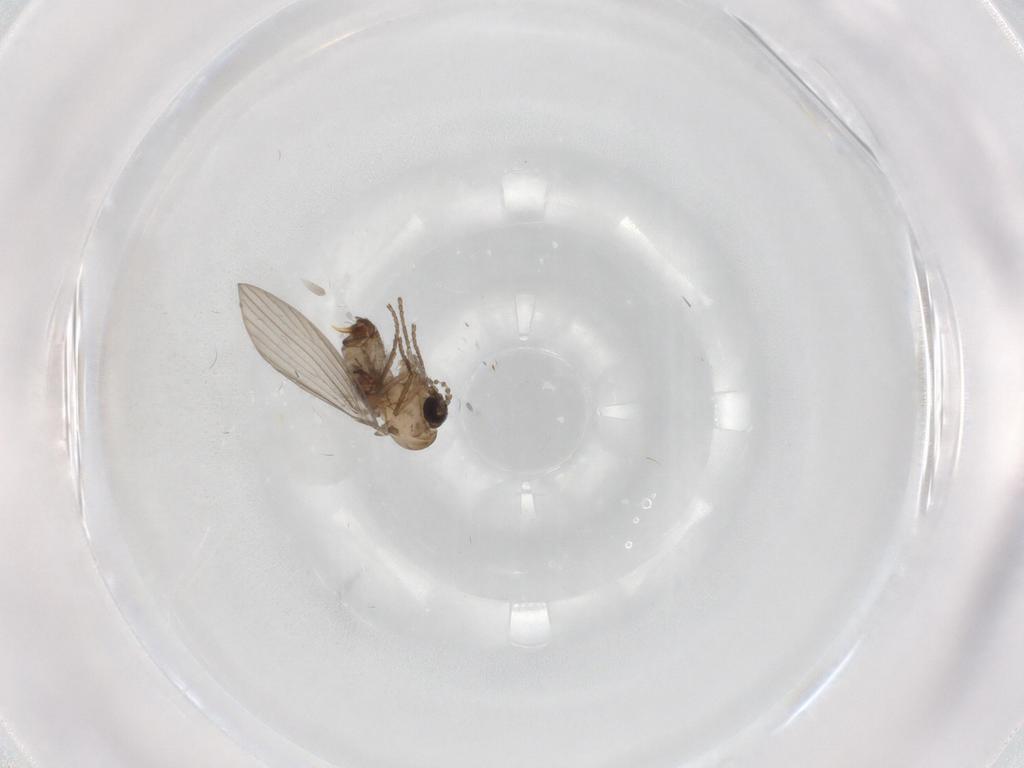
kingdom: Animalia
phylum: Arthropoda
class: Insecta
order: Diptera
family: Psychodidae
